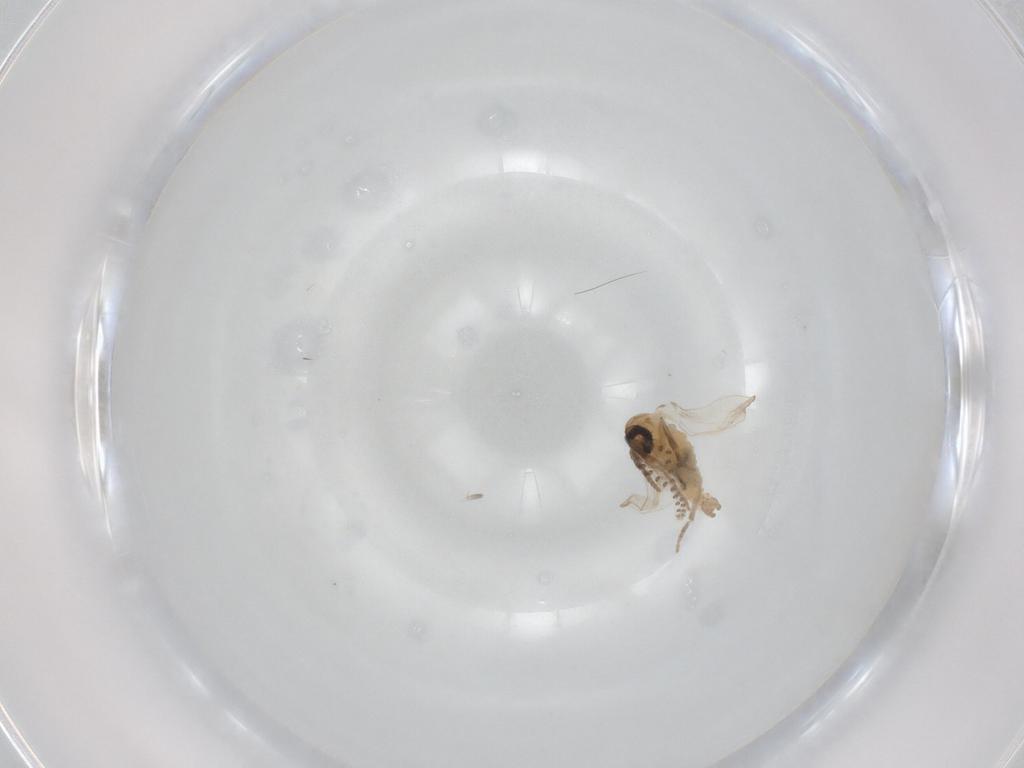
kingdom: Animalia
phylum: Arthropoda
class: Insecta
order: Diptera
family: Psychodidae
